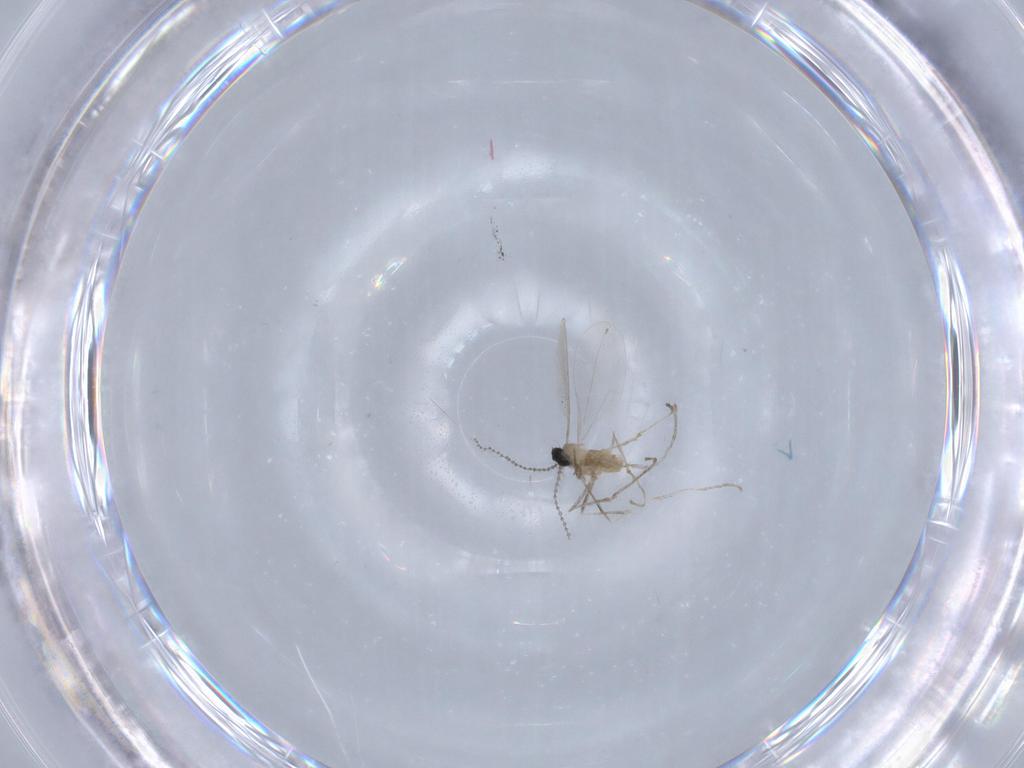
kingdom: Animalia
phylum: Arthropoda
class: Insecta
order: Diptera
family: Cecidomyiidae
